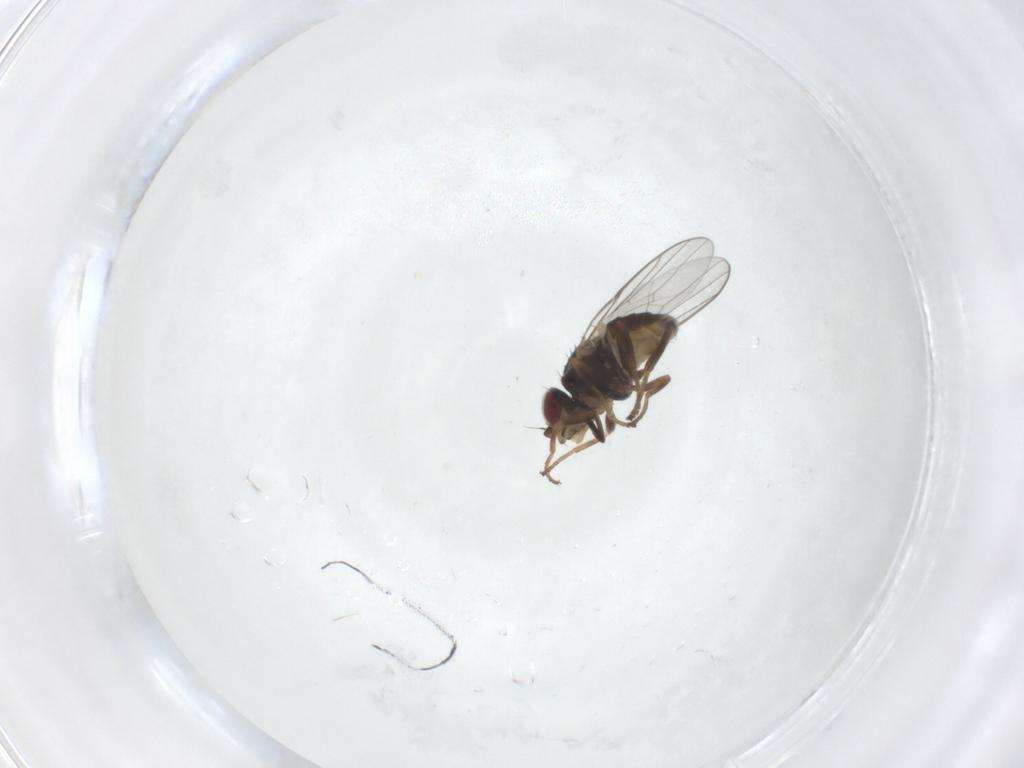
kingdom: Animalia
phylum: Arthropoda
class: Insecta
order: Diptera
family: Chloropidae
